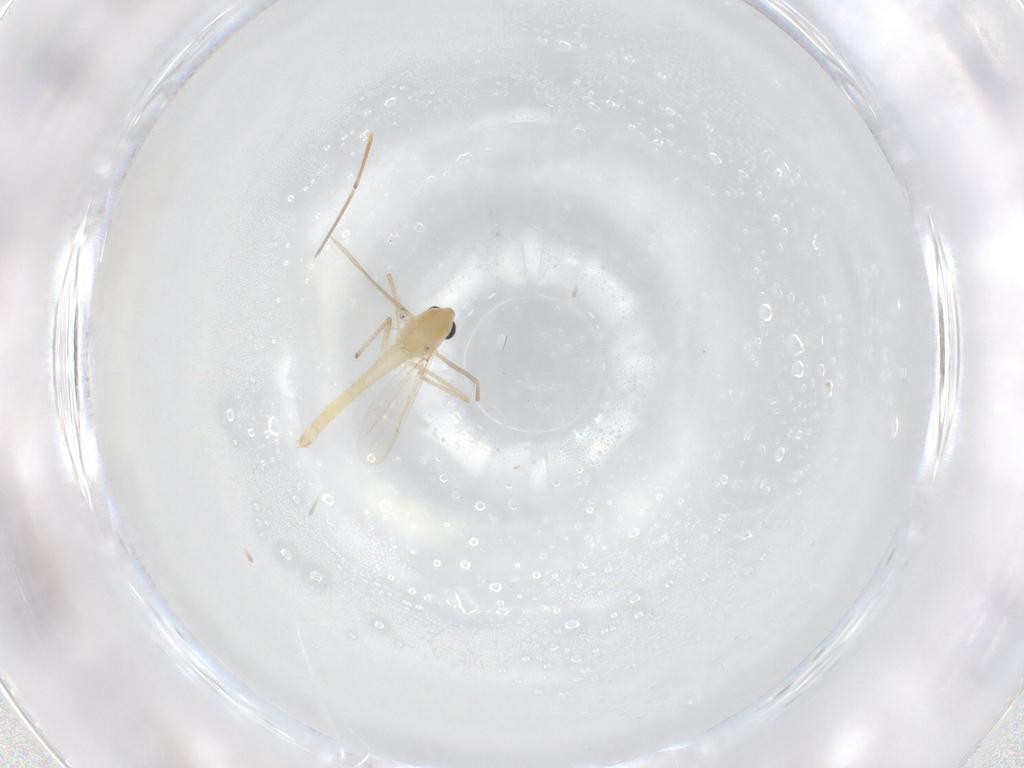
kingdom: Animalia
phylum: Arthropoda
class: Insecta
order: Diptera
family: Chironomidae
